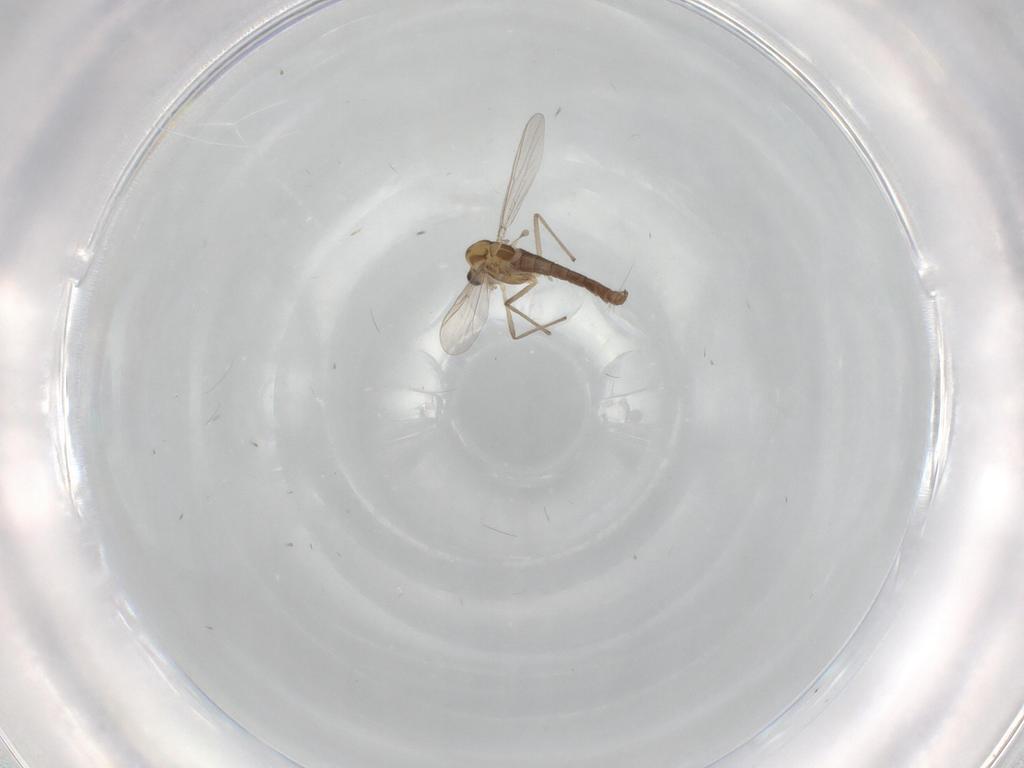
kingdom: Animalia
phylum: Arthropoda
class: Insecta
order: Diptera
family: Chironomidae
